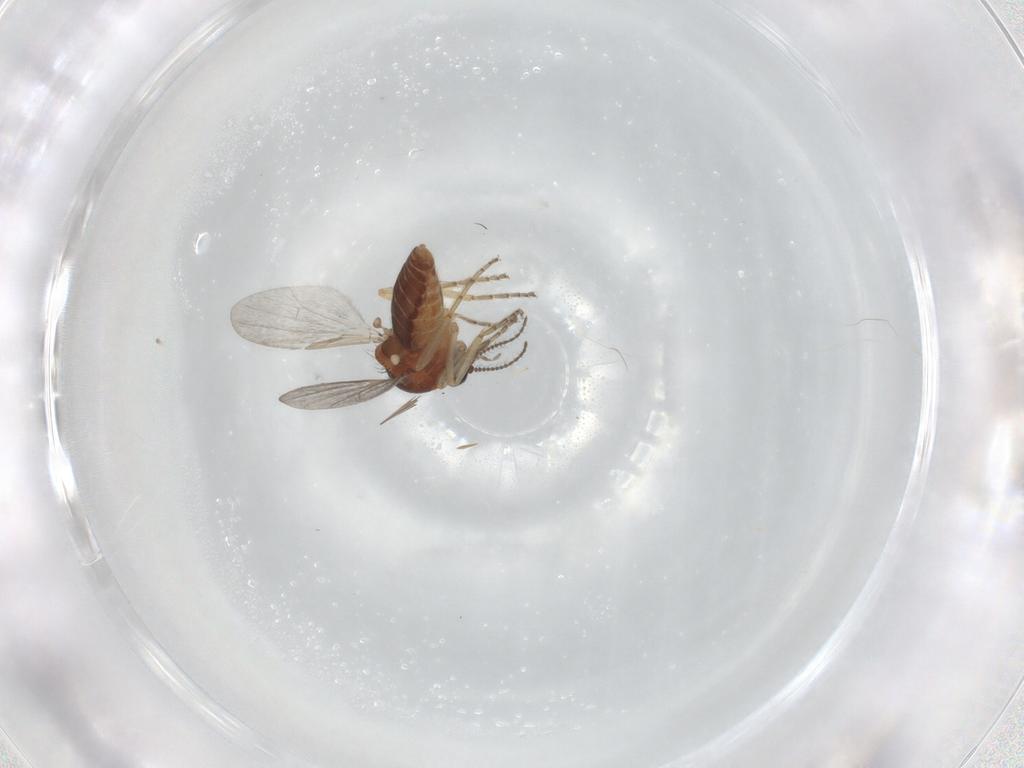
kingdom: Animalia
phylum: Arthropoda
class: Insecta
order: Diptera
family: Ceratopogonidae
